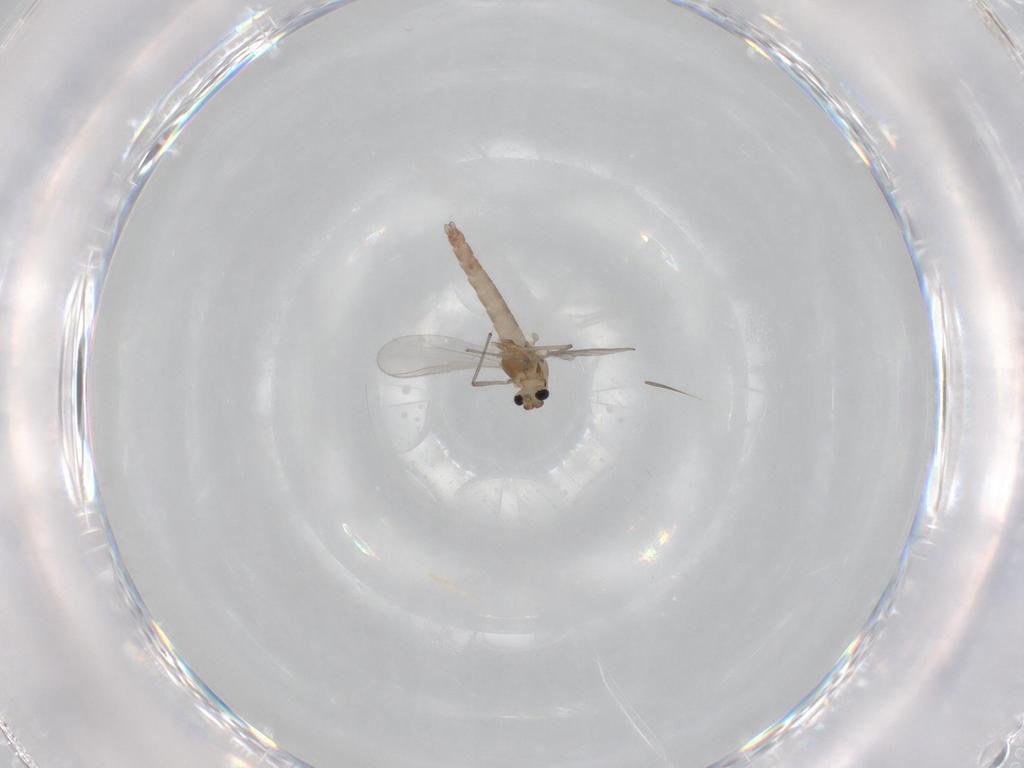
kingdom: Animalia
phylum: Arthropoda
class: Insecta
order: Diptera
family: Chironomidae
